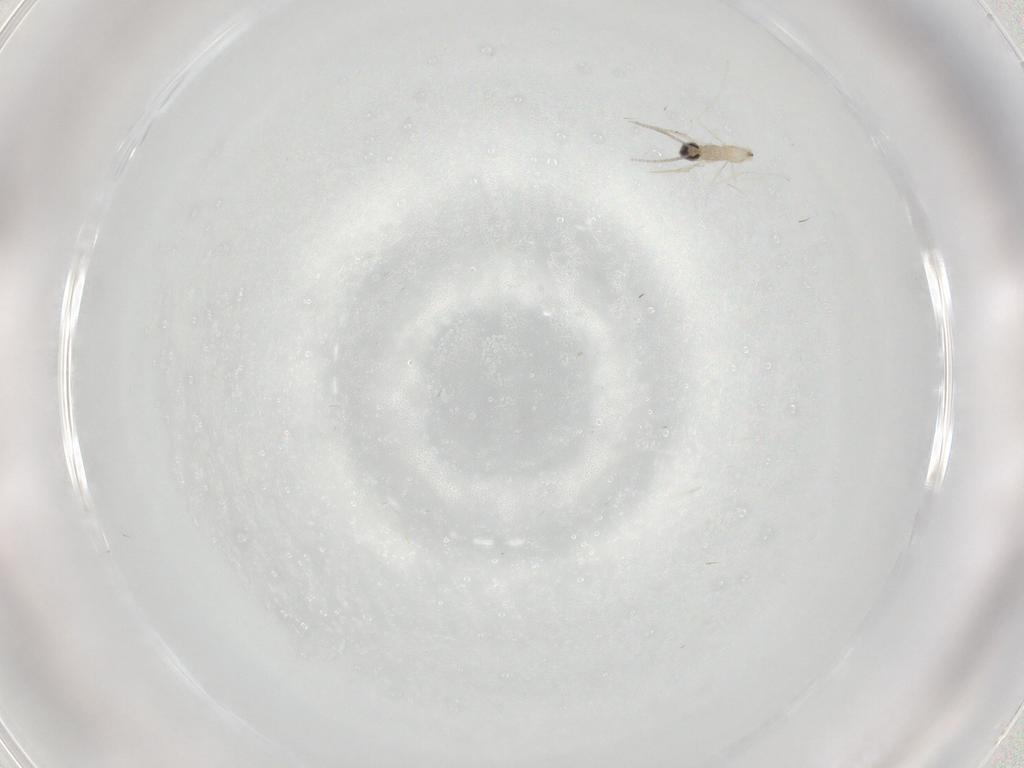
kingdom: Animalia
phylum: Arthropoda
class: Insecta
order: Diptera
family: Cecidomyiidae
